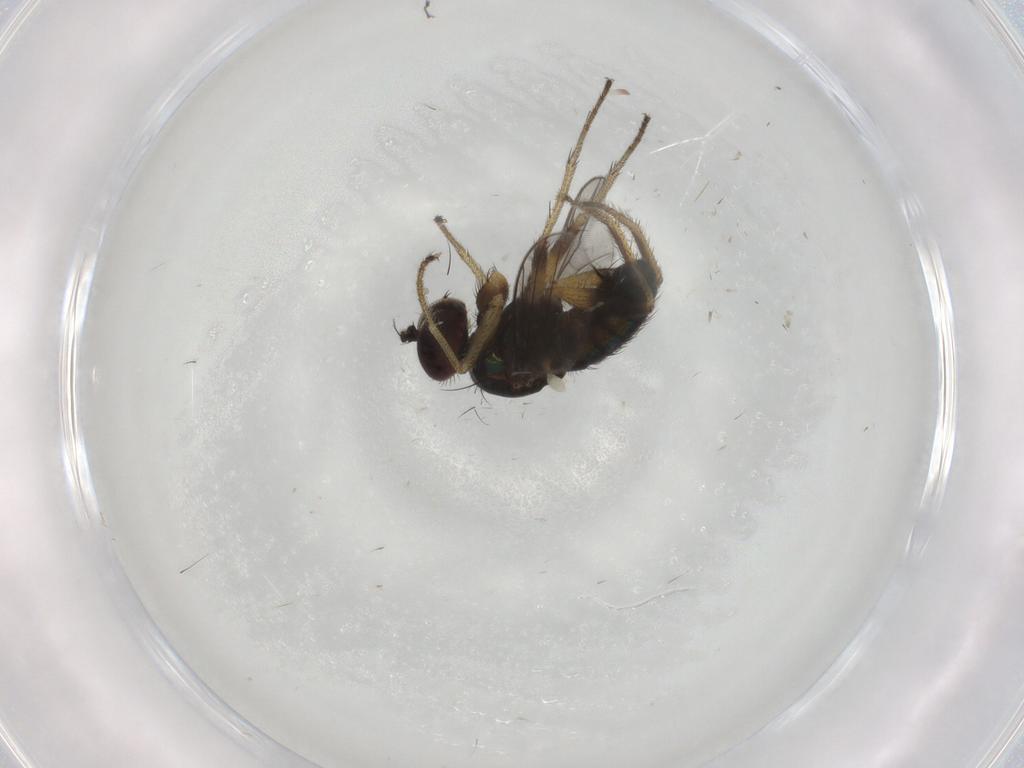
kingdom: Animalia
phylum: Arthropoda
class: Insecta
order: Diptera
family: Dolichopodidae
